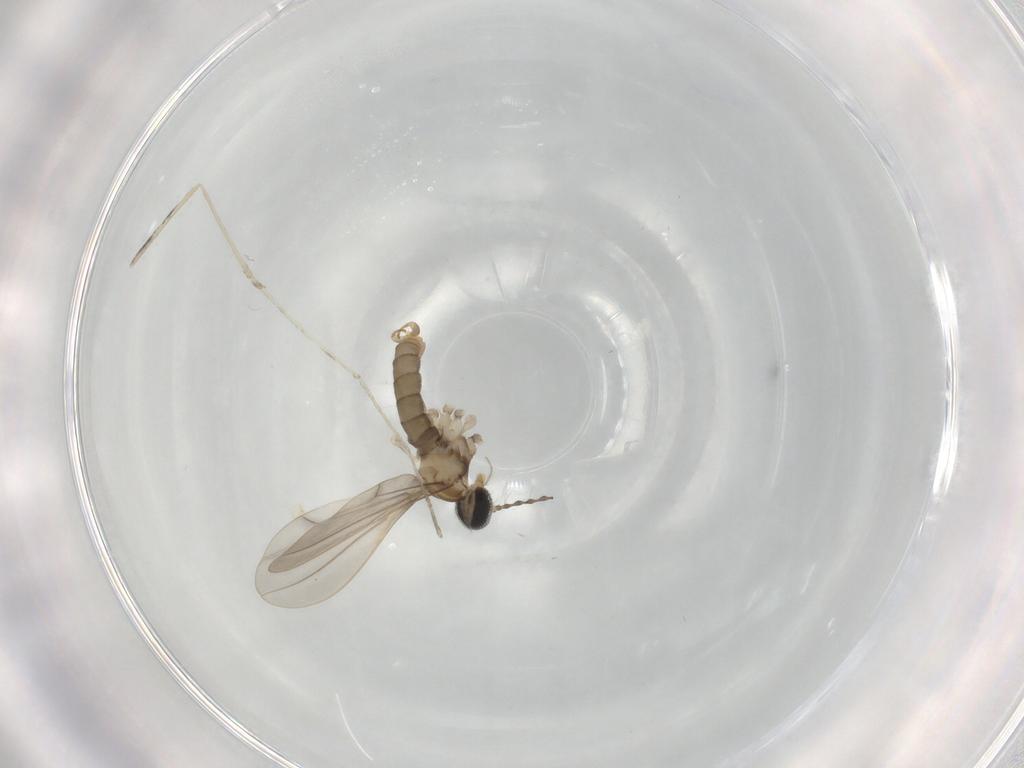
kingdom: Animalia
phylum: Arthropoda
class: Insecta
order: Diptera
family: Cecidomyiidae
